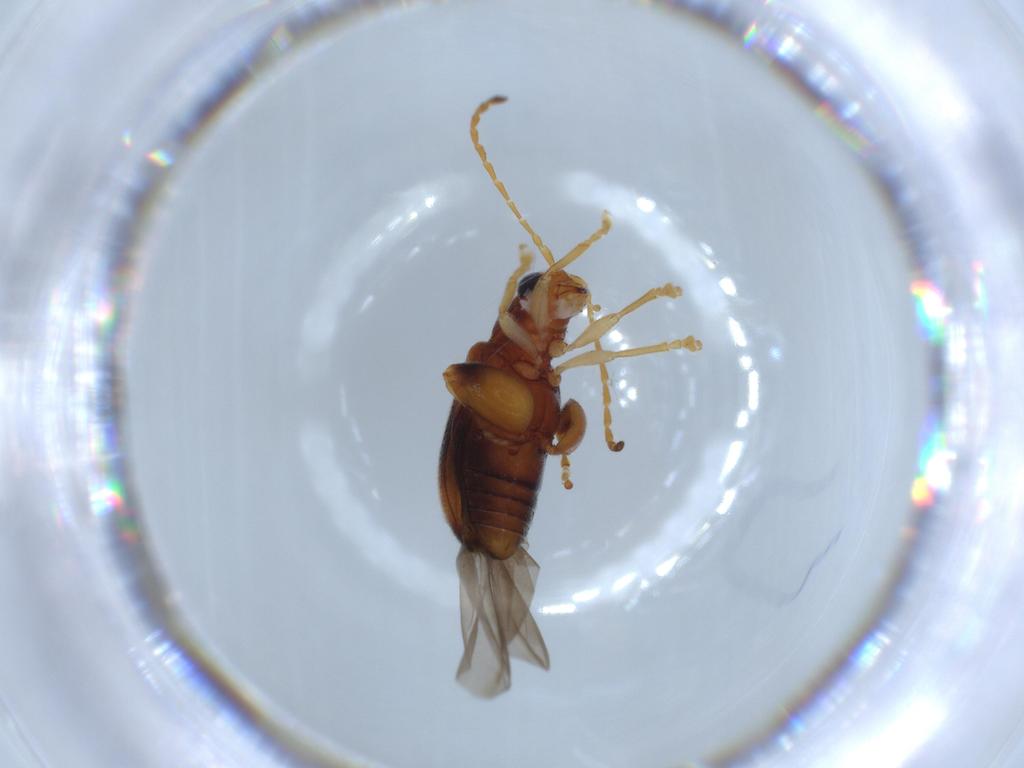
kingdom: Animalia
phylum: Arthropoda
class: Insecta
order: Coleoptera
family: Chrysomelidae
